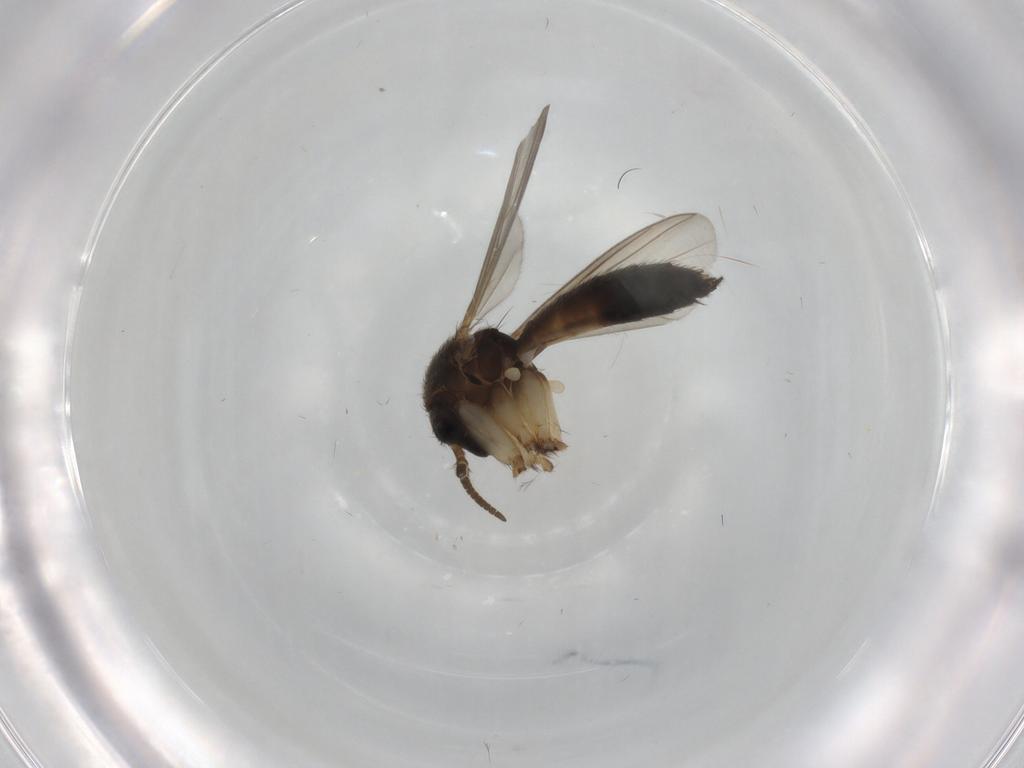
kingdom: Animalia
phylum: Arthropoda
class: Insecta
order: Diptera
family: Mycetophilidae
